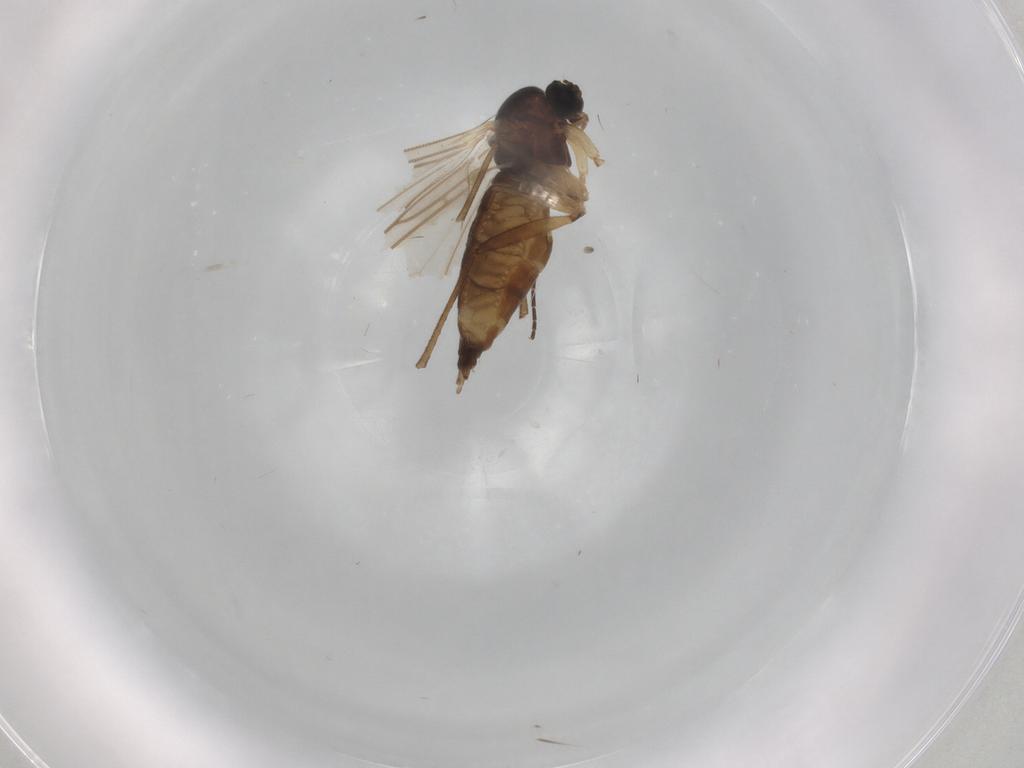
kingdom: Animalia
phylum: Arthropoda
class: Insecta
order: Diptera
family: Sciaridae
